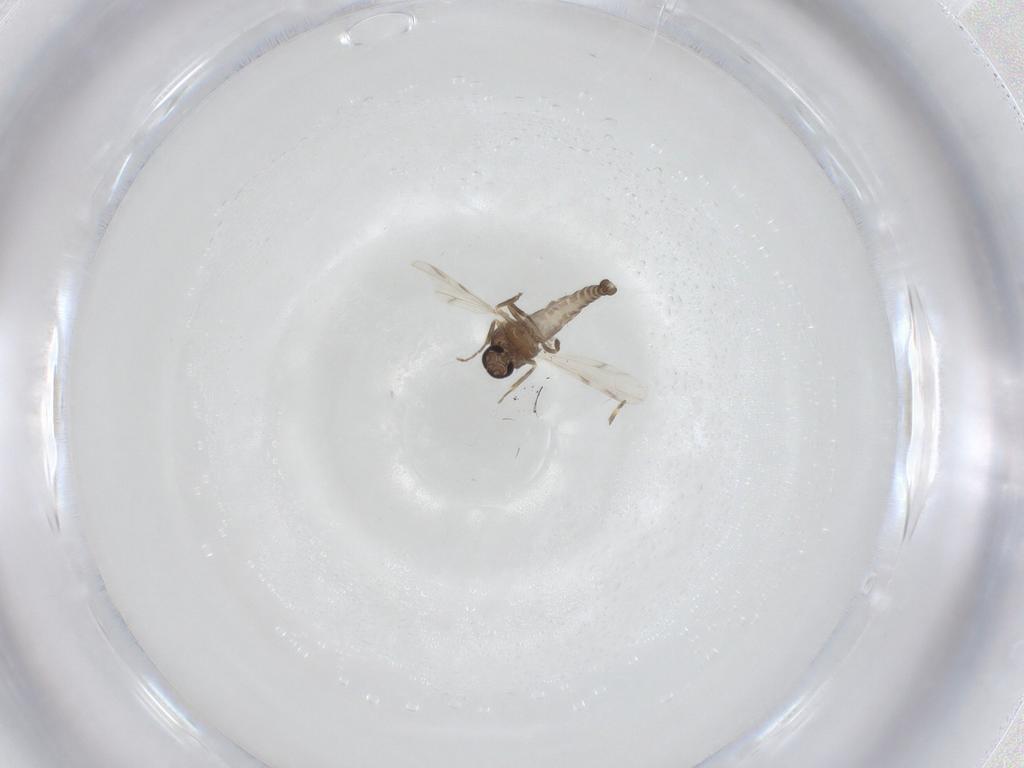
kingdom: Animalia
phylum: Arthropoda
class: Insecta
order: Diptera
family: Ceratopogonidae
